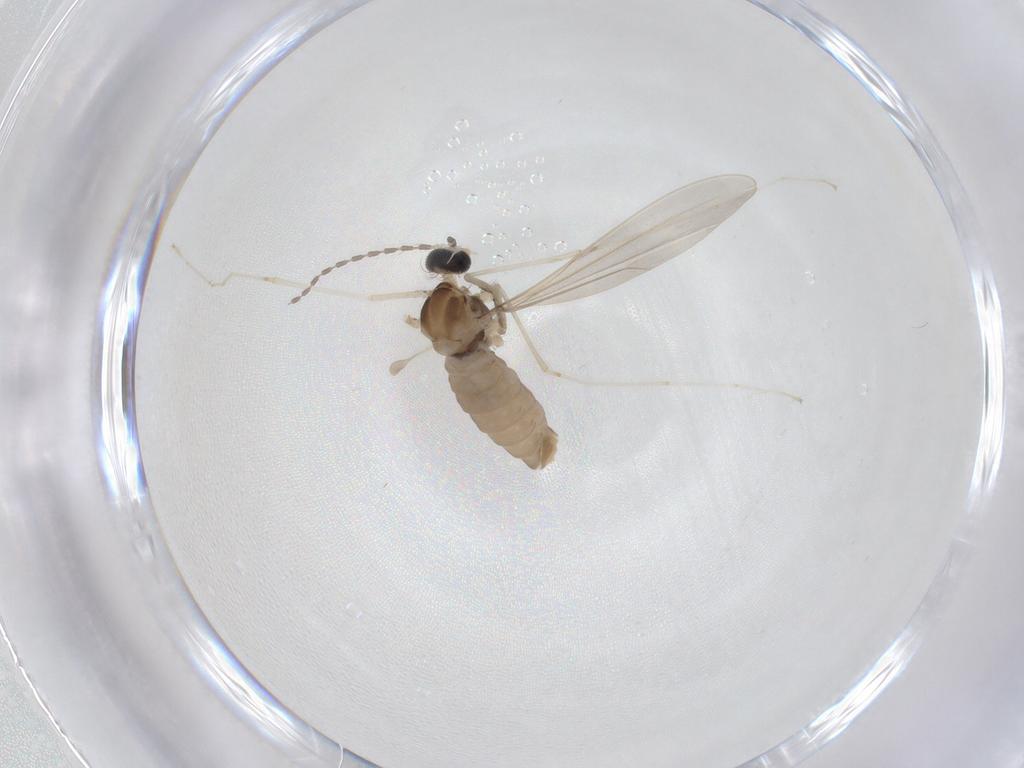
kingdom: Animalia
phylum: Arthropoda
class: Insecta
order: Diptera
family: Cecidomyiidae
